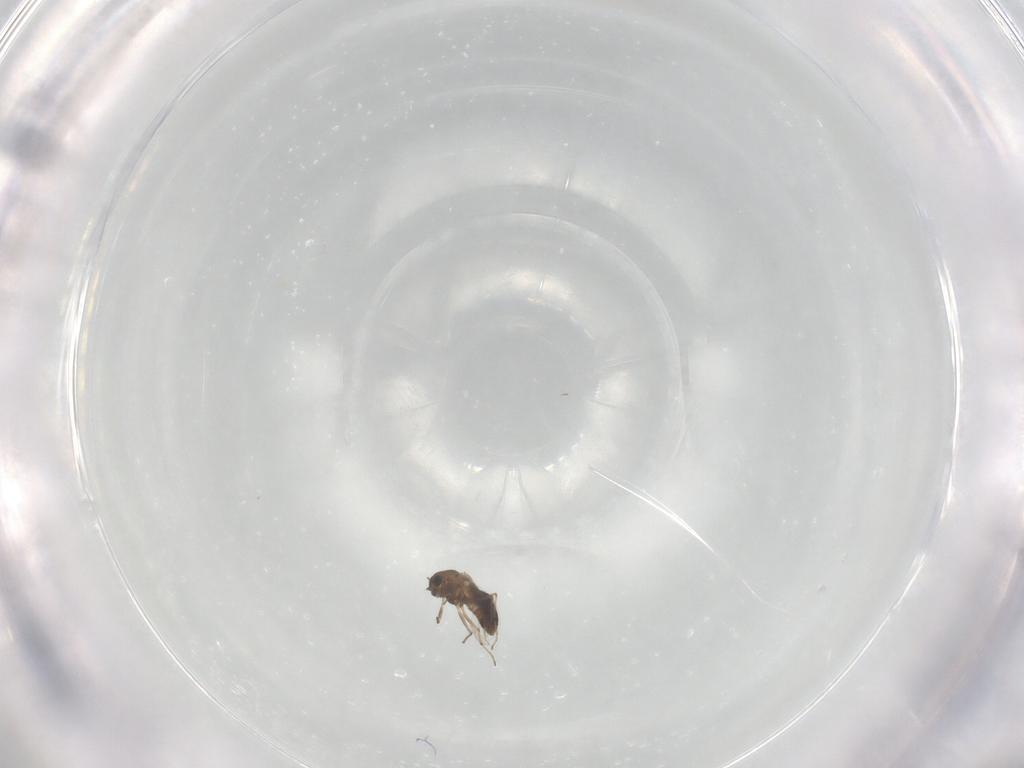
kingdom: Animalia
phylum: Arthropoda
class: Insecta
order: Diptera
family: Chironomidae
